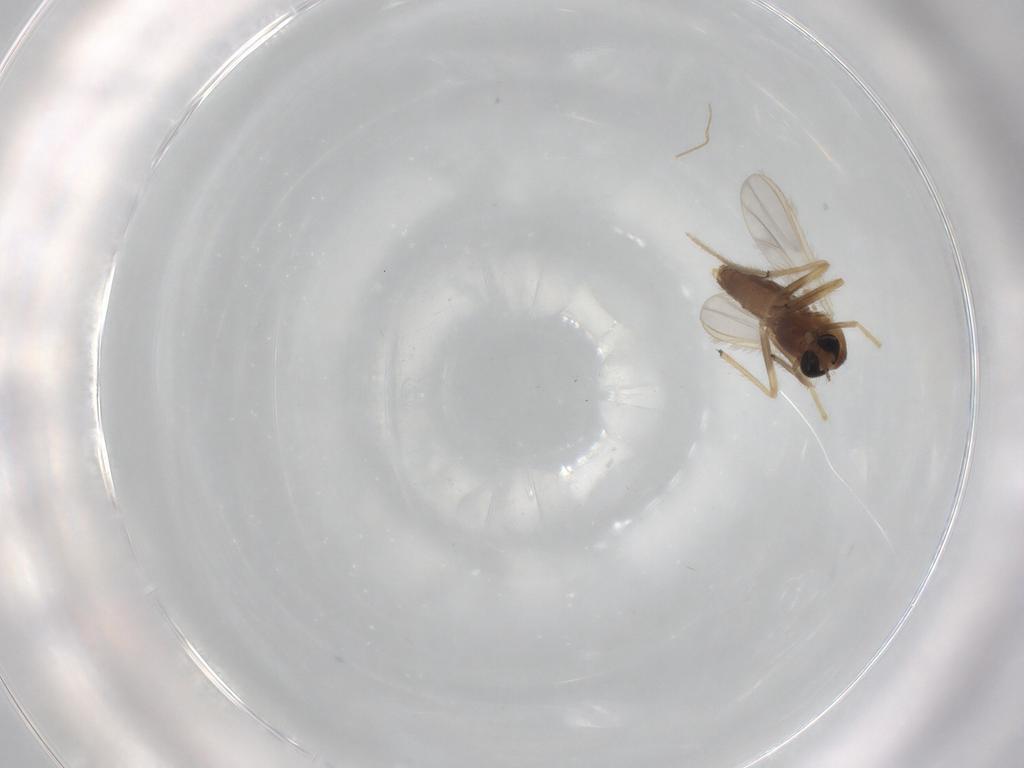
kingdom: Animalia
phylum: Arthropoda
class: Insecta
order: Diptera
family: Chironomidae
